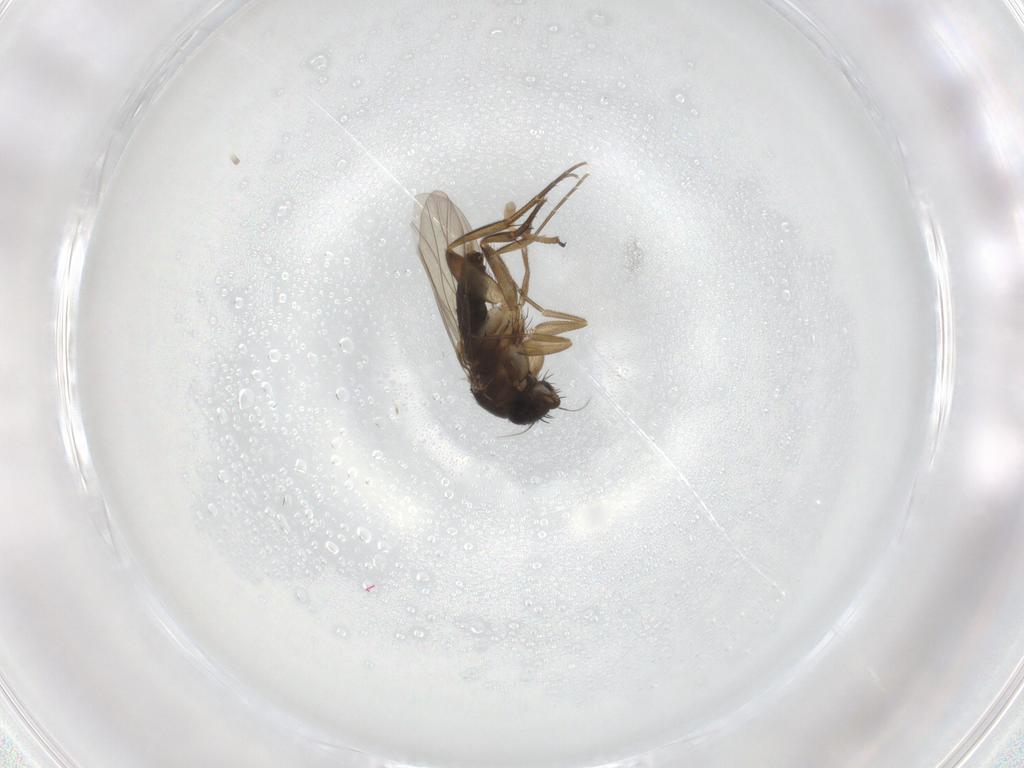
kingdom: Animalia
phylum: Arthropoda
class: Insecta
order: Diptera
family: Phoridae
